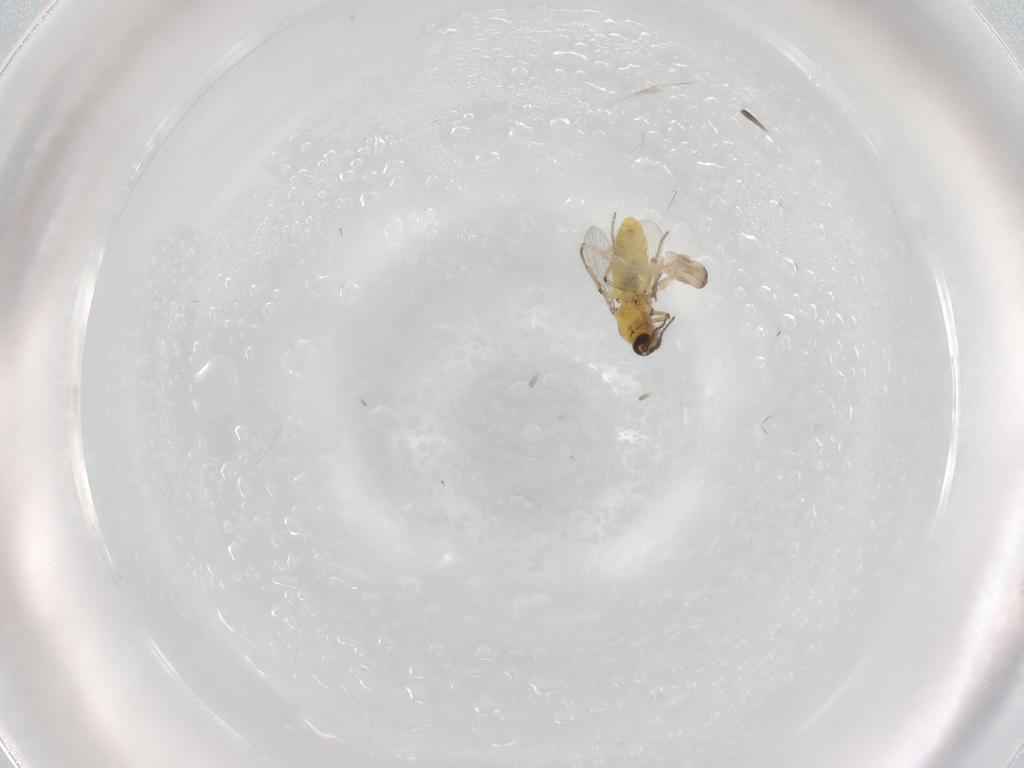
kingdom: Animalia
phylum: Arthropoda
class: Insecta
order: Diptera
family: Ceratopogonidae
